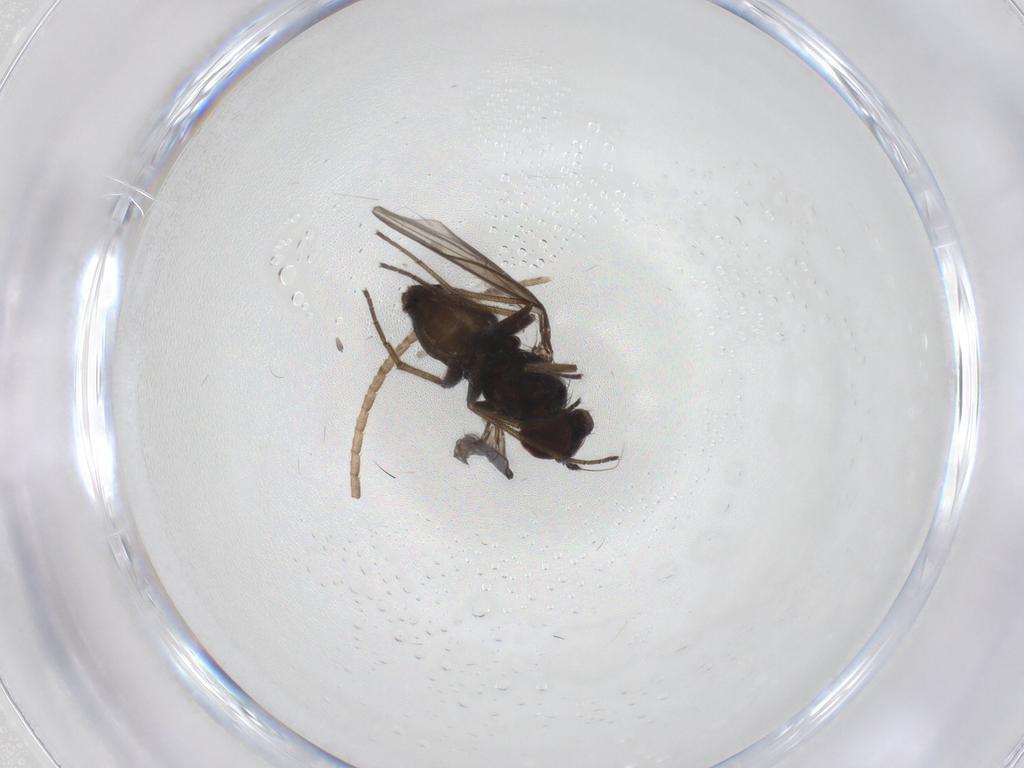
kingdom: Animalia
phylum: Arthropoda
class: Insecta
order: Diptera
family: Dolichopodidae
